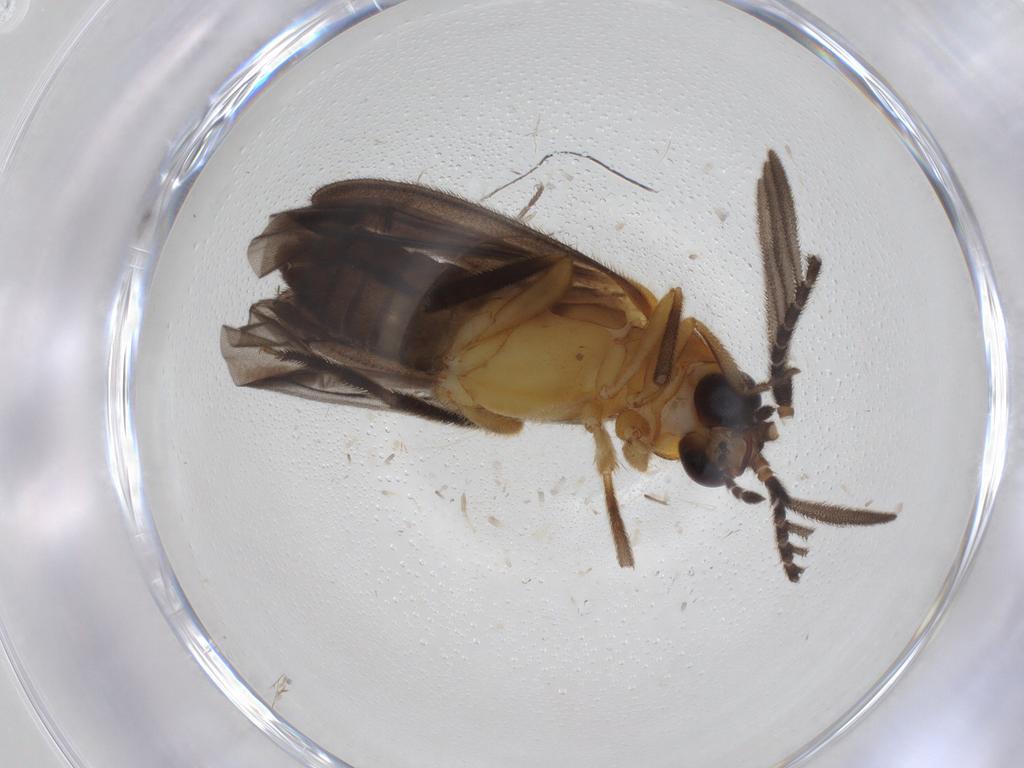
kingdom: Animalia
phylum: Arthropoda
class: Insecta
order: Coleoptera
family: Lampyridae
